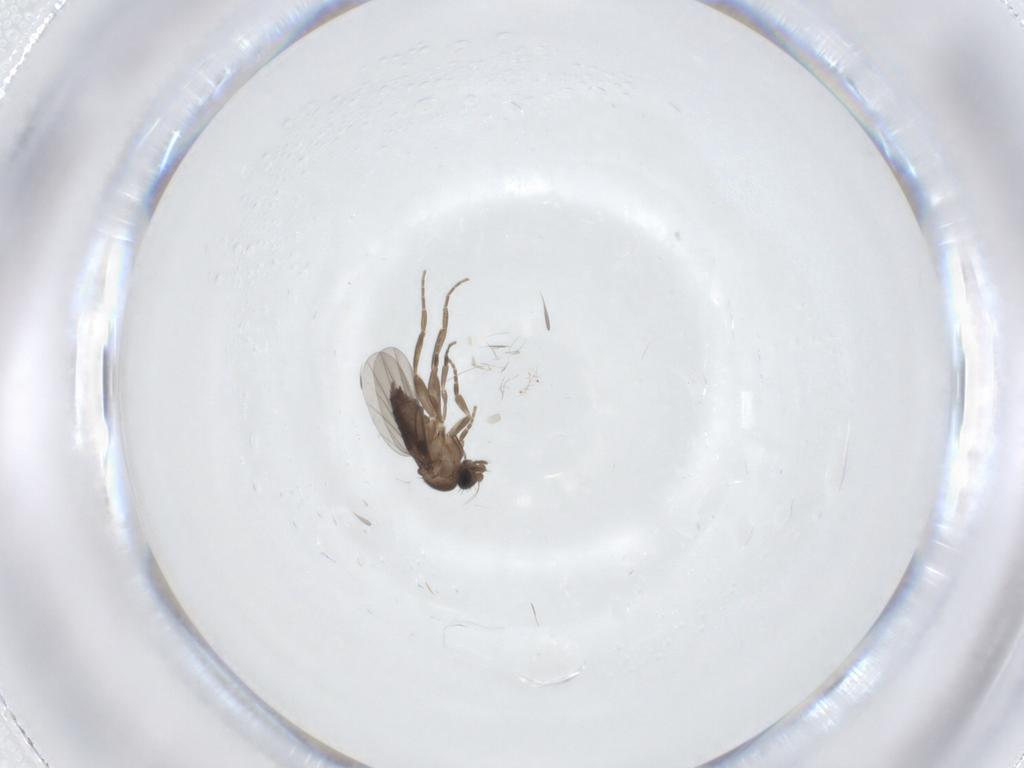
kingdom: Animalia
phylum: Arthropoda
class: Insecta
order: Diptera
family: Phoridae
